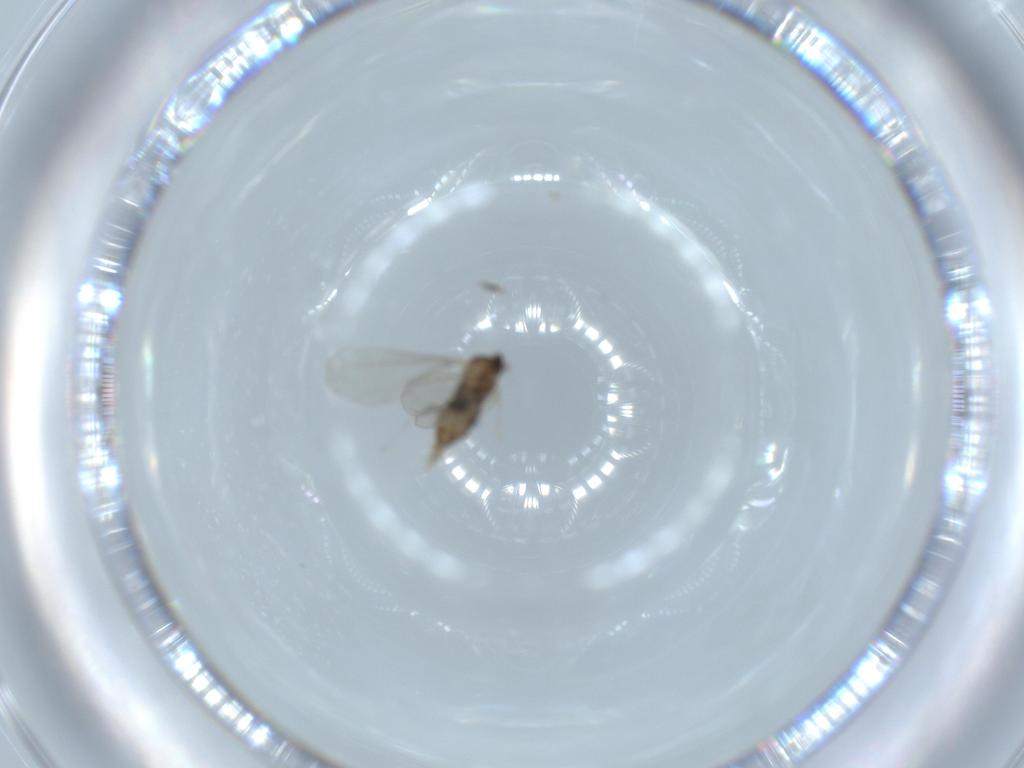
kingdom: Animalia
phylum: Arthropoda
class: Insecta
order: Diptera
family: Cecidomyiidae
